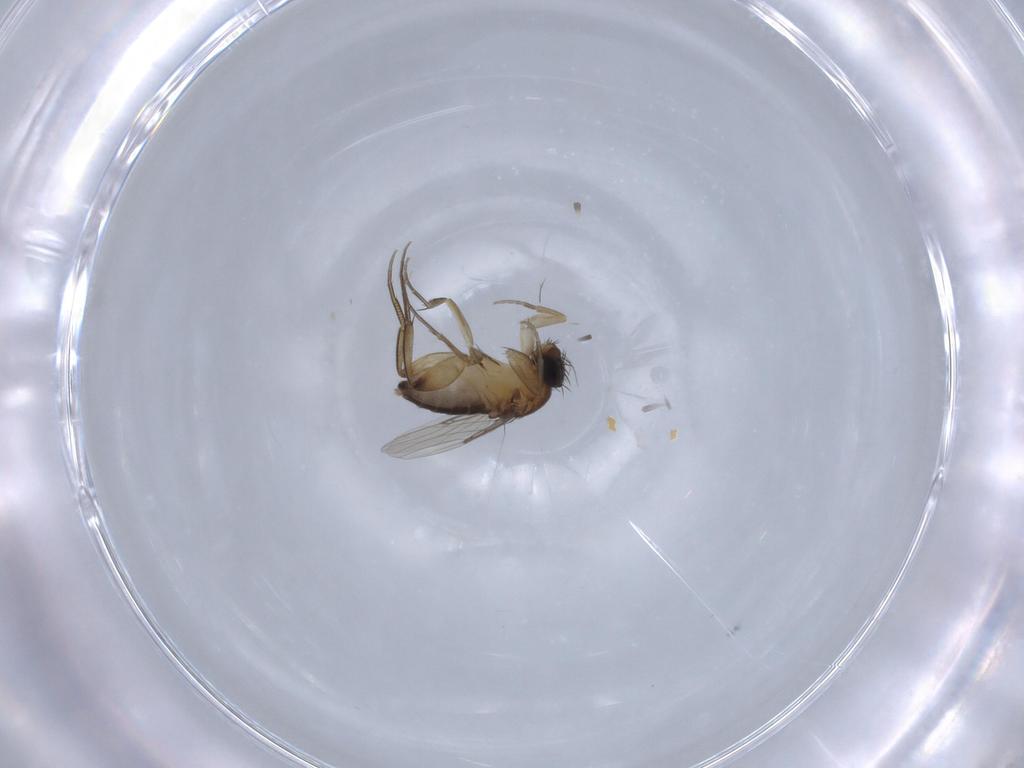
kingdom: Animalia
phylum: Arthropoda
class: Insecta
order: Diptera
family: Phoridae
